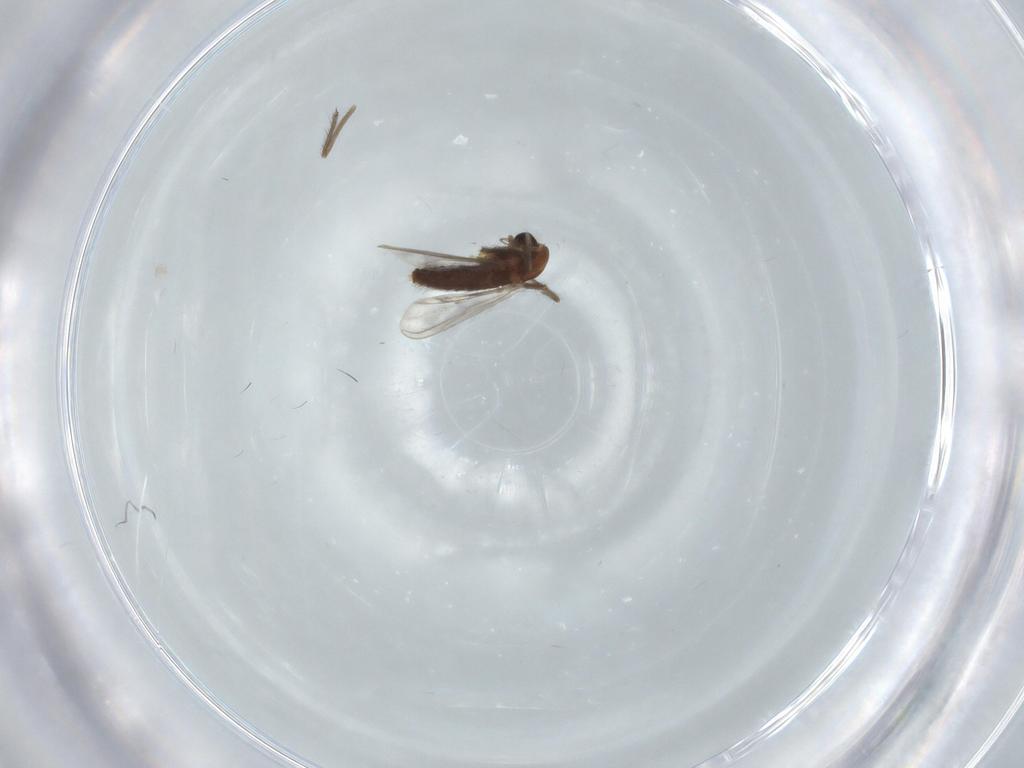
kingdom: Animalia
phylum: Arthropoda
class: Insecta
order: Diptera
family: Chironomidae
